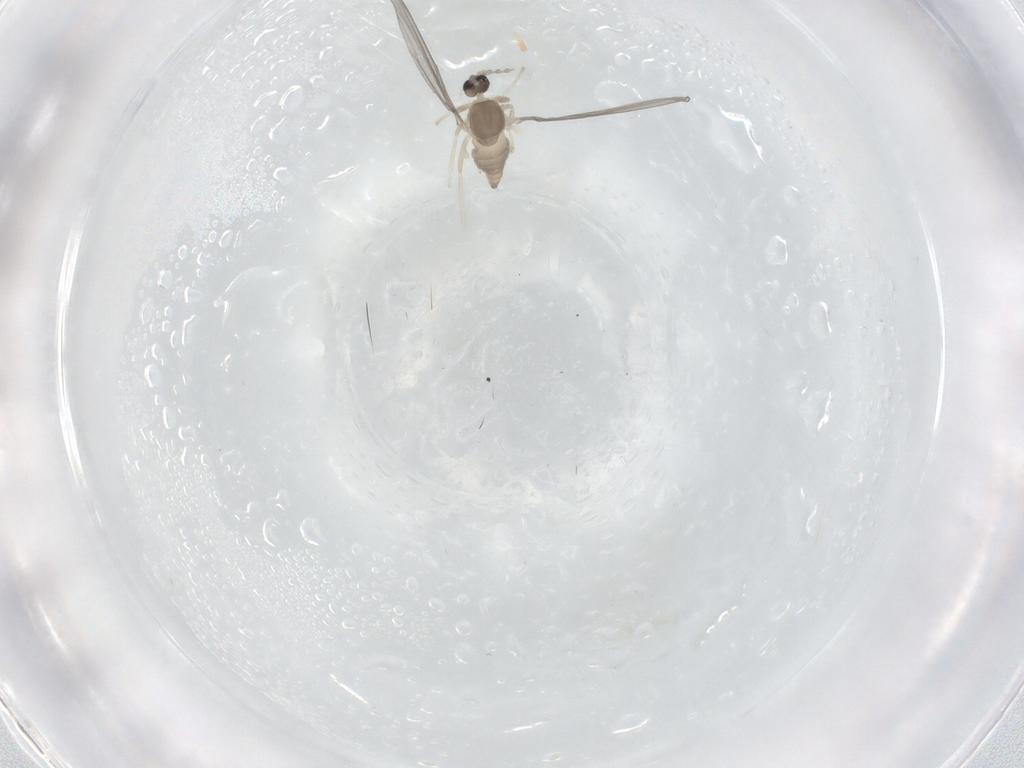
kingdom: Animalia
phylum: Arthropoda
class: Insecta
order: Diptera
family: Cecidomyiidae
